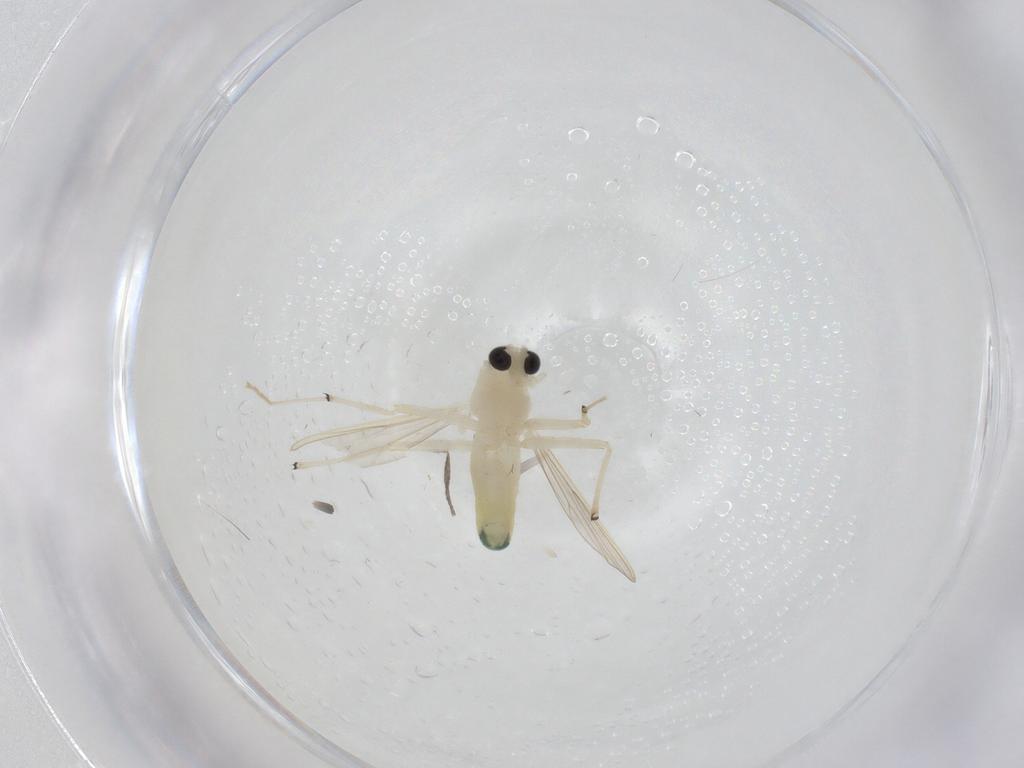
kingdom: Animalia
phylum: Arthropoda
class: Insecta
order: Diptera
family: Chironomidae
